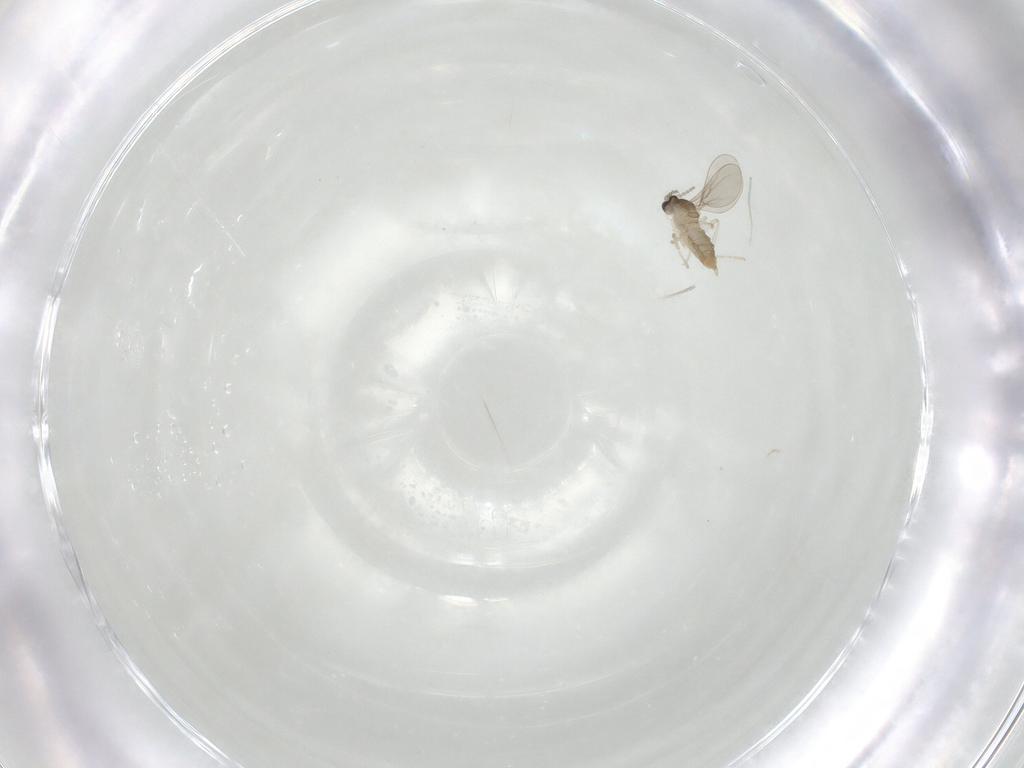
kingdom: Animalia
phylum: Arthropoda
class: Insecta
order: Diptera
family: Cecidomyiidae
